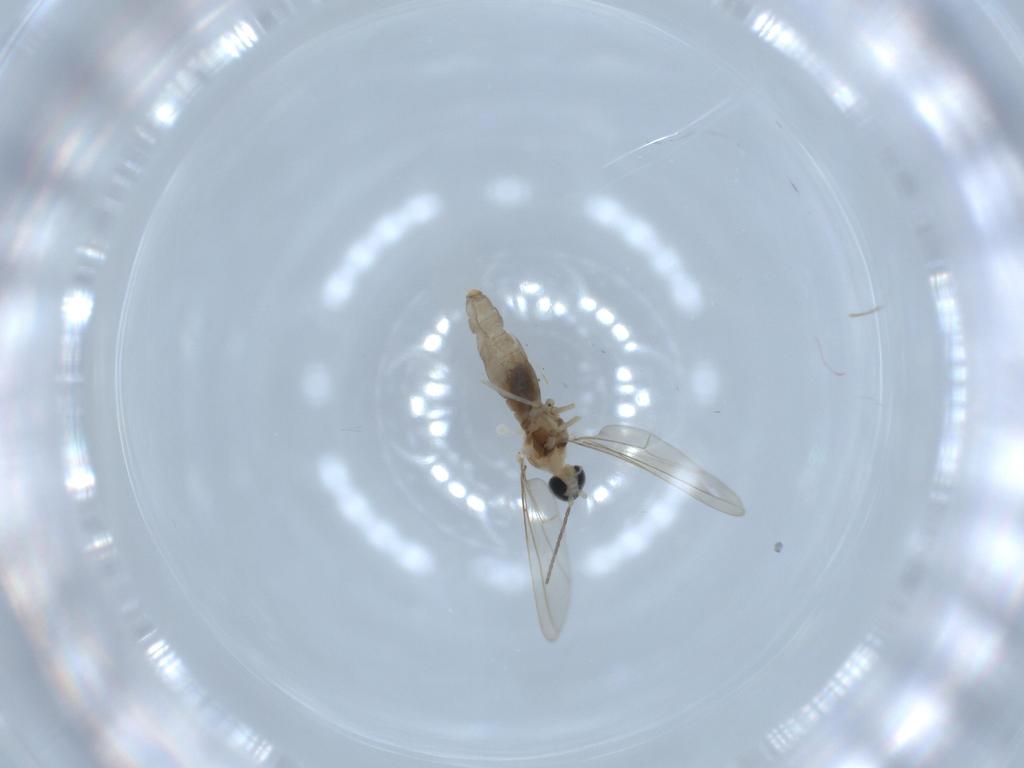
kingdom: Animalia
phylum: Arthropoda
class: Insecta
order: Diptera
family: Cecidomyiidae
